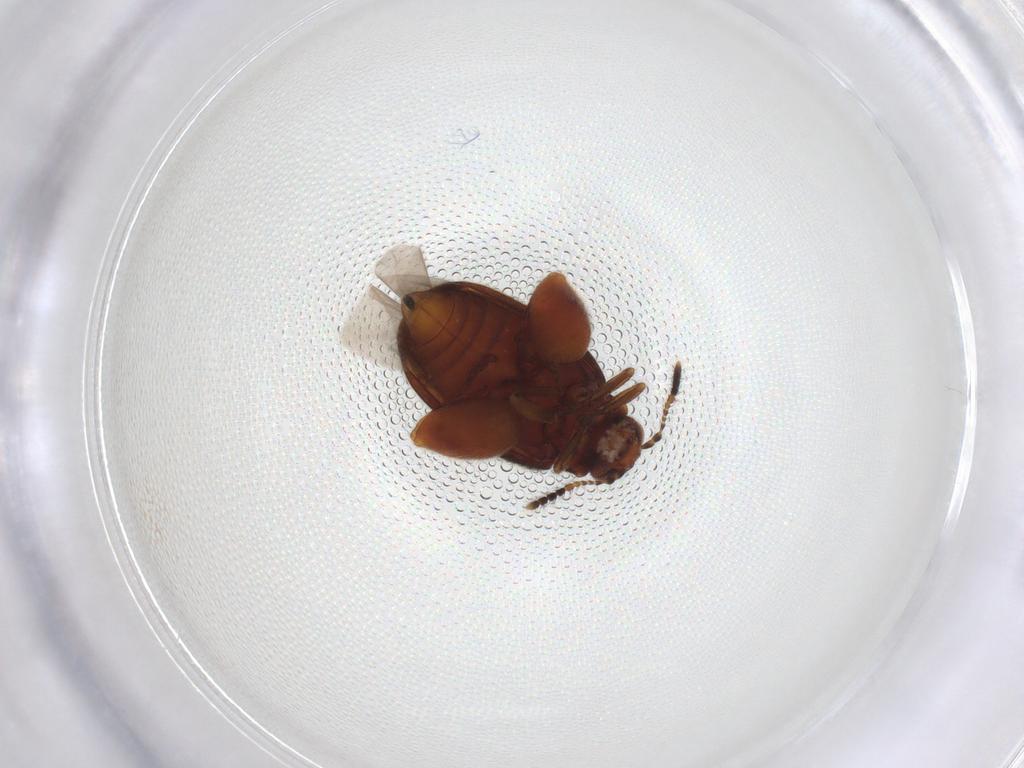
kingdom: Animalia
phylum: Arthropoda
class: Insecta
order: Coleoptera
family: Chrysomelidae
